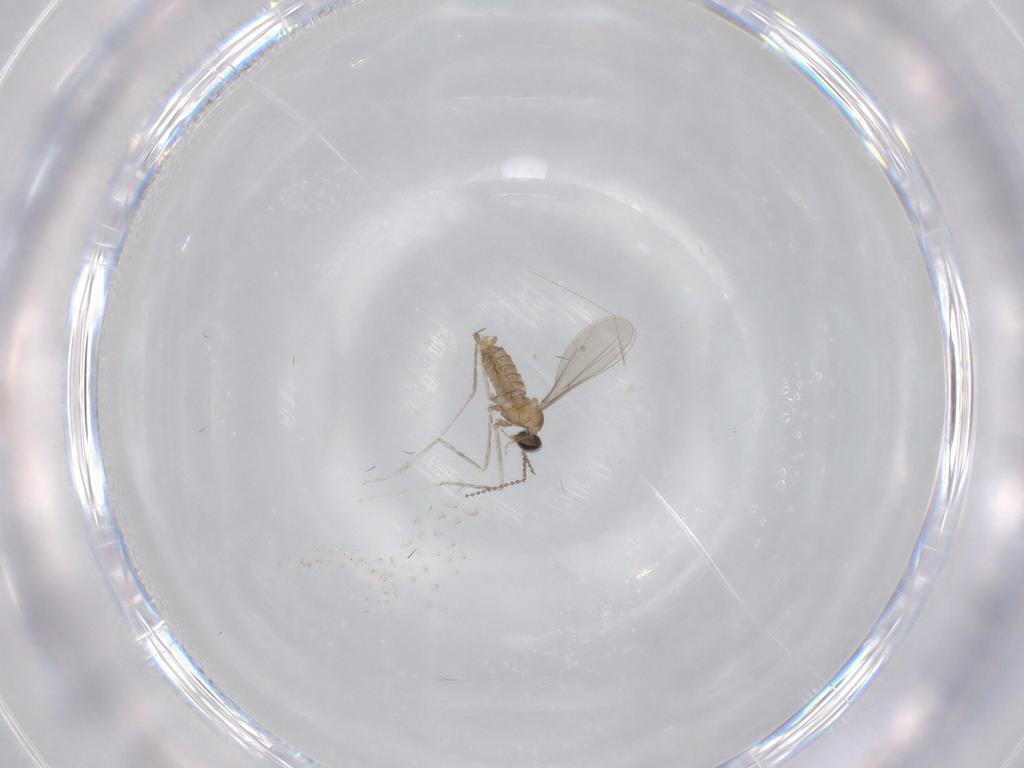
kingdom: Animalia
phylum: Arthropoda
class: Insecta
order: Diptera
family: Cecidomyiidae
